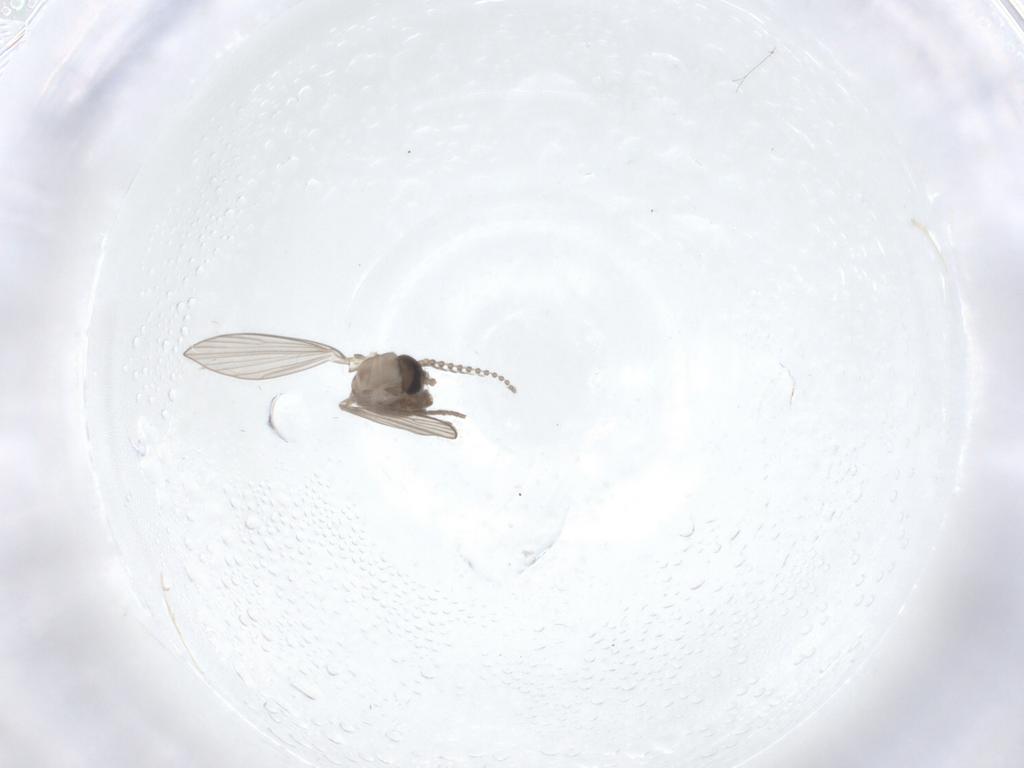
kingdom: Animalia
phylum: Arthropoda
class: Insecta
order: Diptera
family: Psychodidae
